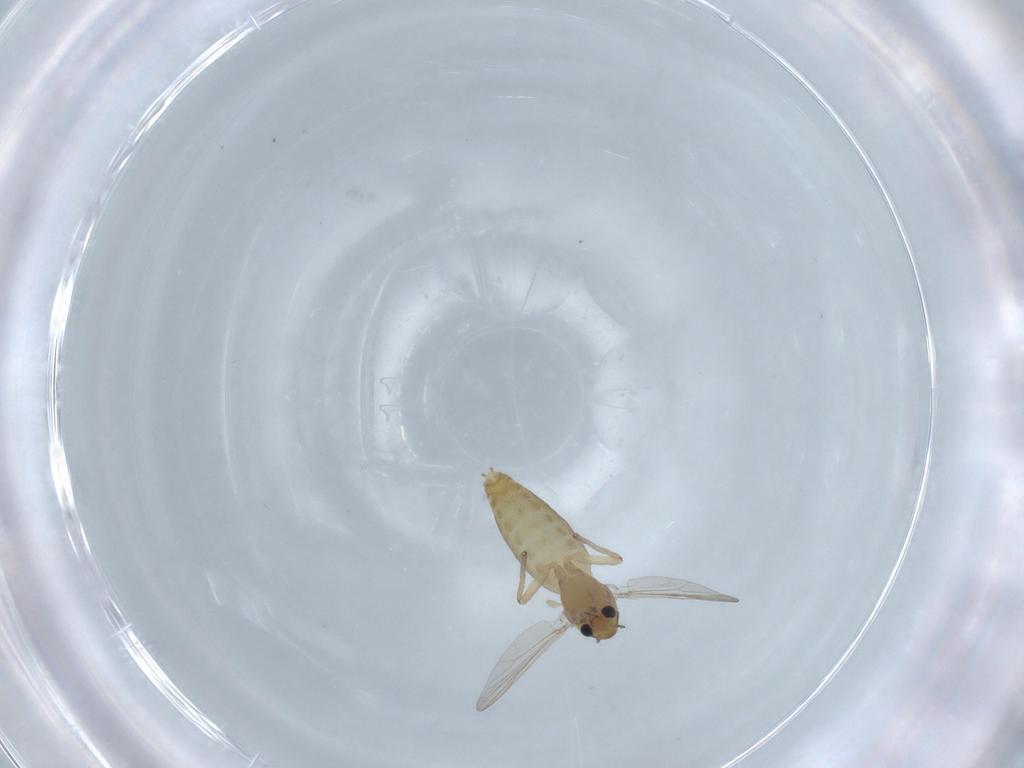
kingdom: Animalia
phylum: Arthropoda
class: Insecta
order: Diptera
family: Chironomidae
